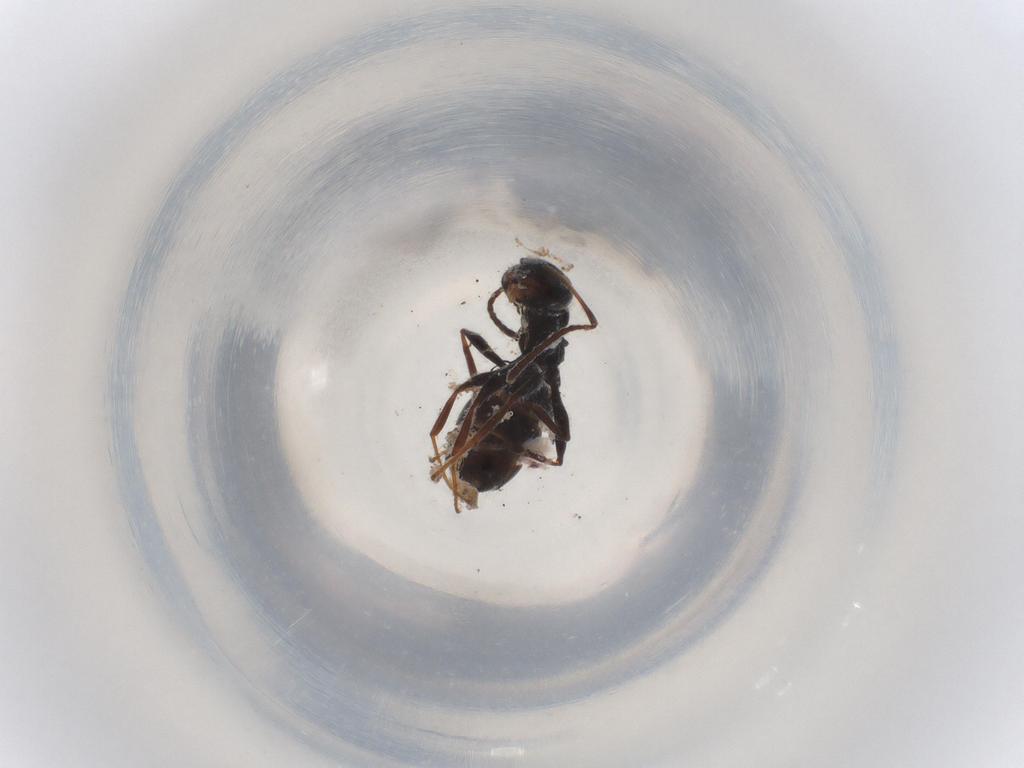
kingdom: Animalia
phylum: Arthropoda
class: Insecta
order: Hymenoptera
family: Formicidae
